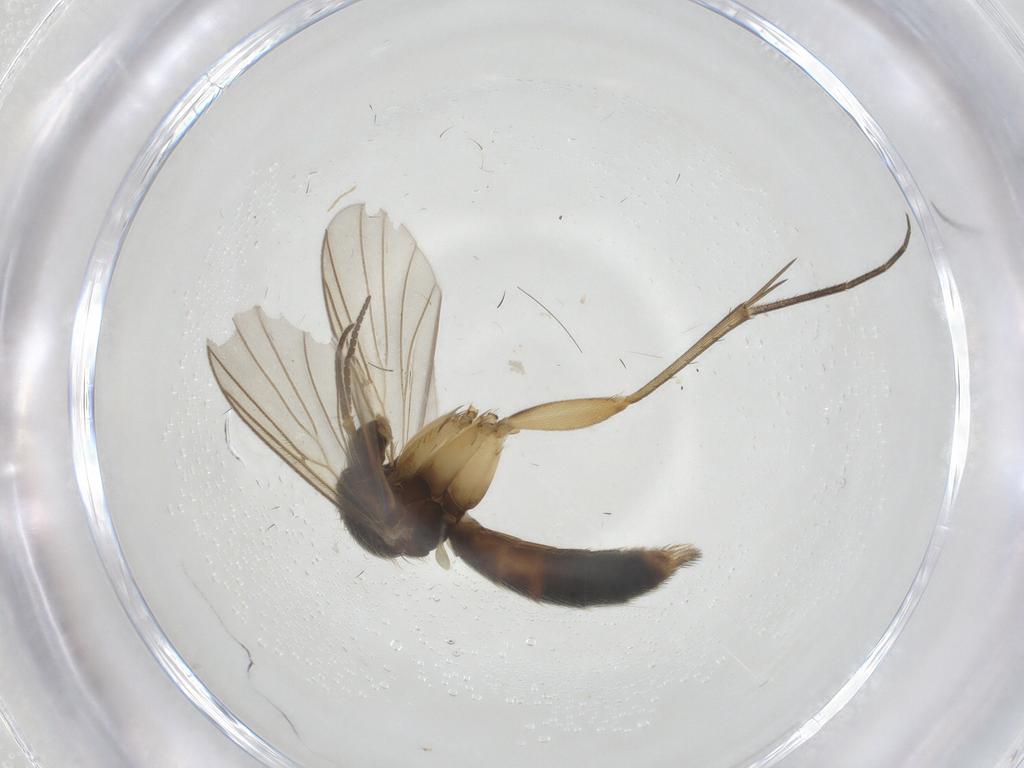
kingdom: Animalia
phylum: Arthropoda
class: Insecta
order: Diptera
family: Mycetophilidae
